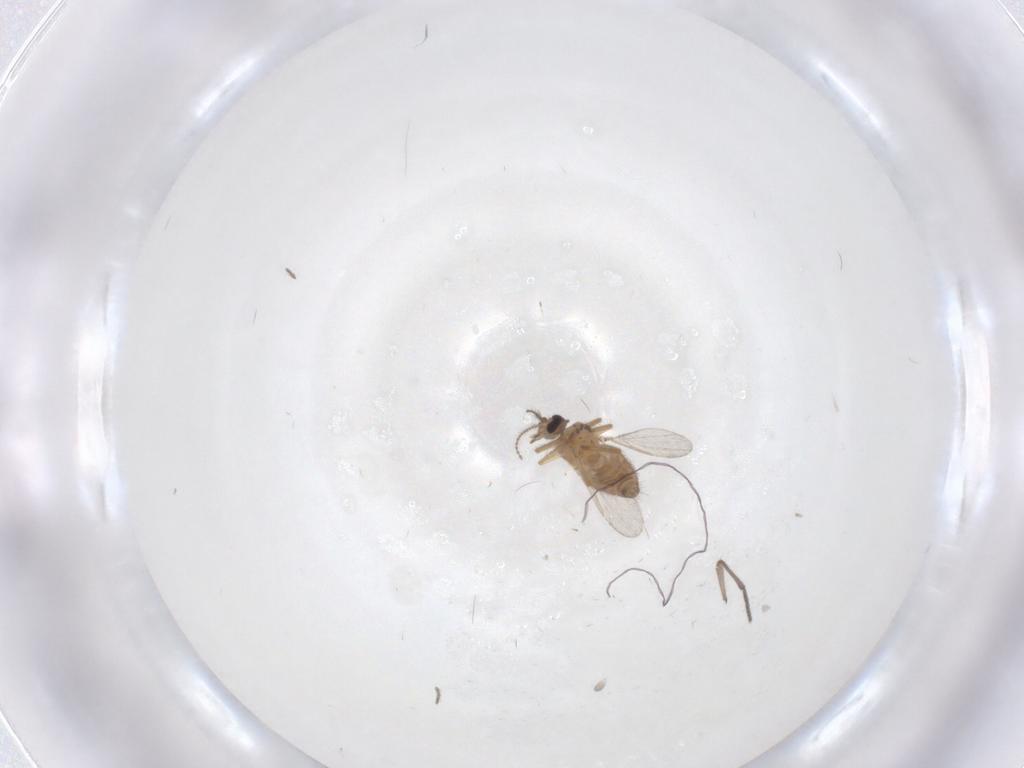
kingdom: Animalia
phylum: Arthropoda
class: Insecta
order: Diptera
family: Ceratopogonidae
